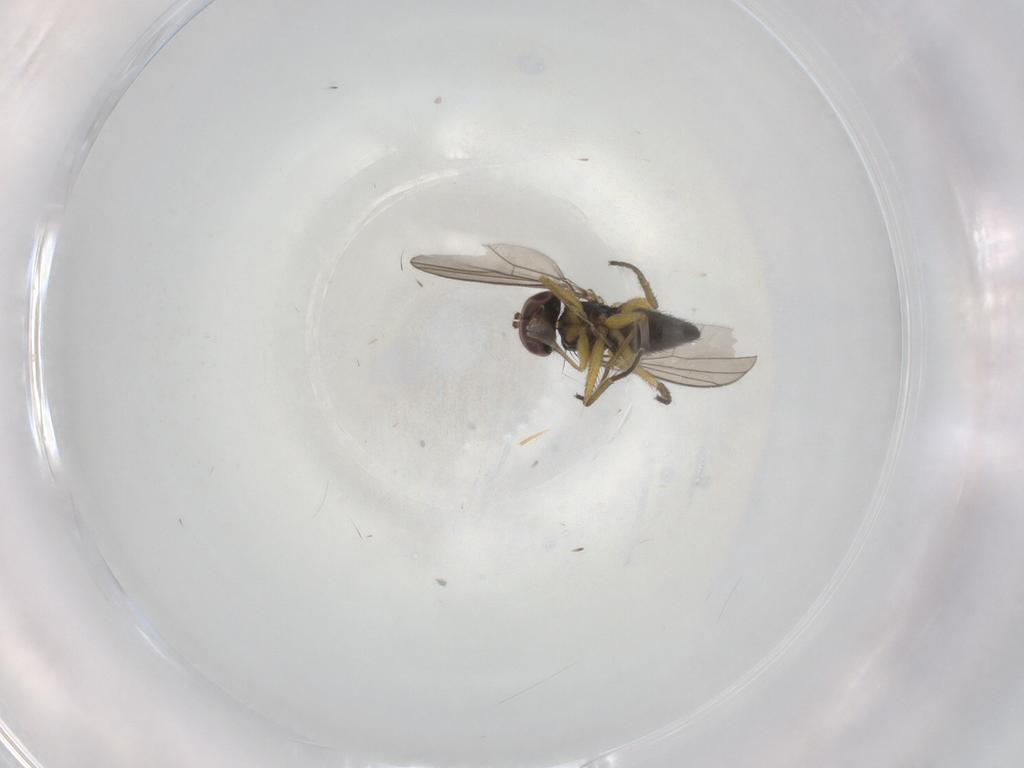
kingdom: Animalia
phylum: Arthropoda
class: Insecta
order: Diptera
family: Dolichopodidae
